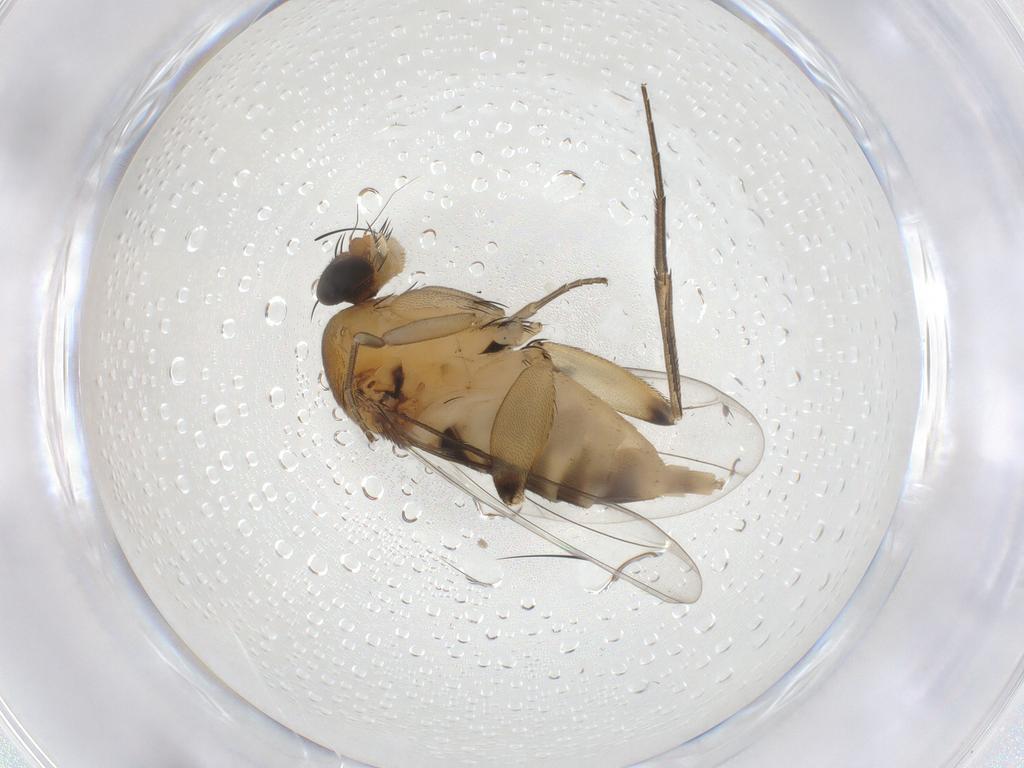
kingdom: Animalia
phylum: Arthropoda
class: Insecta
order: Diptera
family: Phoridae
